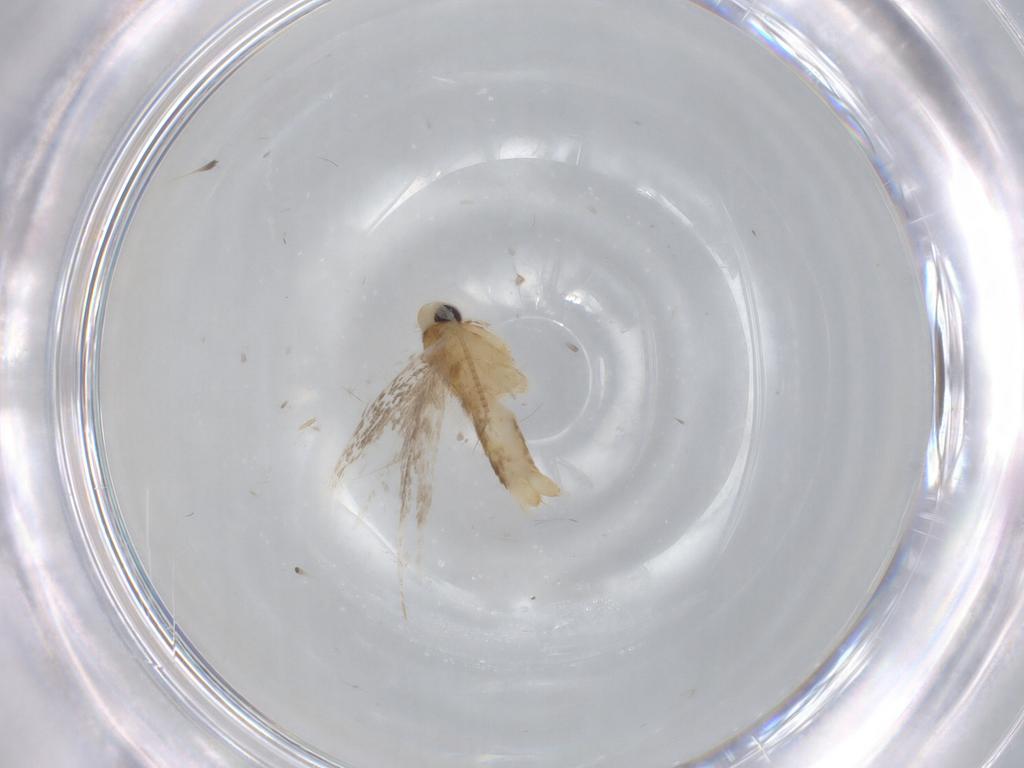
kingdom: Animalia
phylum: Arthropoda
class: Insecta
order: Lepidoptera
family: Gracillariidae
